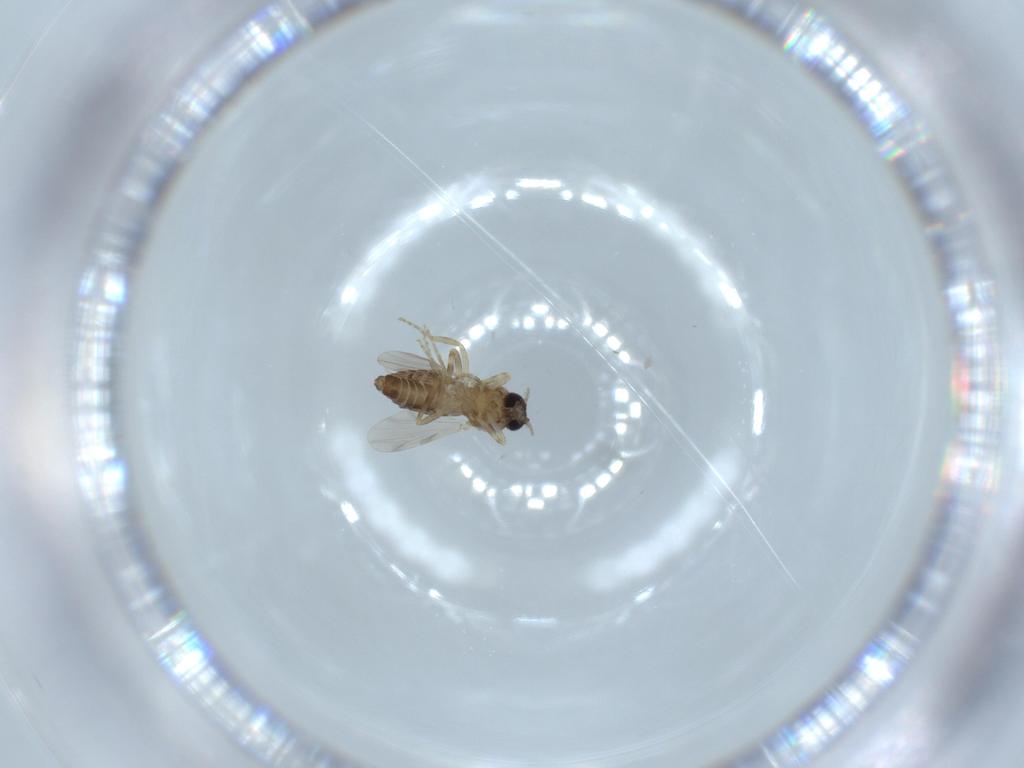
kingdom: Animalia
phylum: Arthropoda
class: Insecta
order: Diptera
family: Ceratopogonidae
